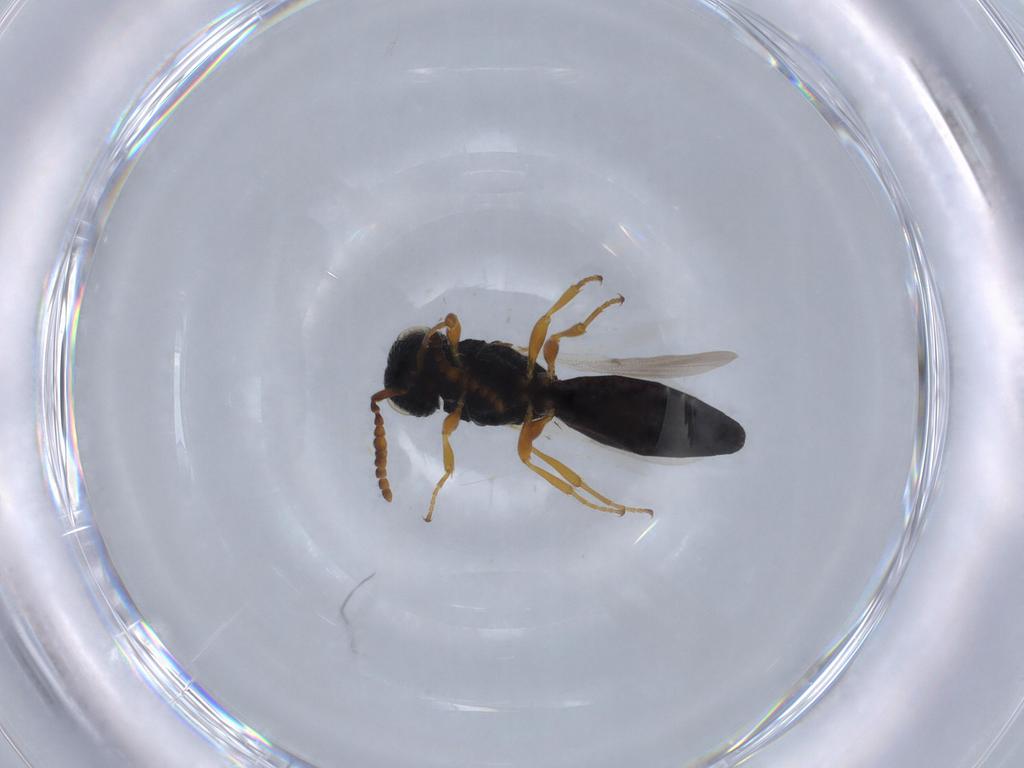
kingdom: Animalia
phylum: Arthropoda
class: Insecta
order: Hymenoptera
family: Scelionidae
